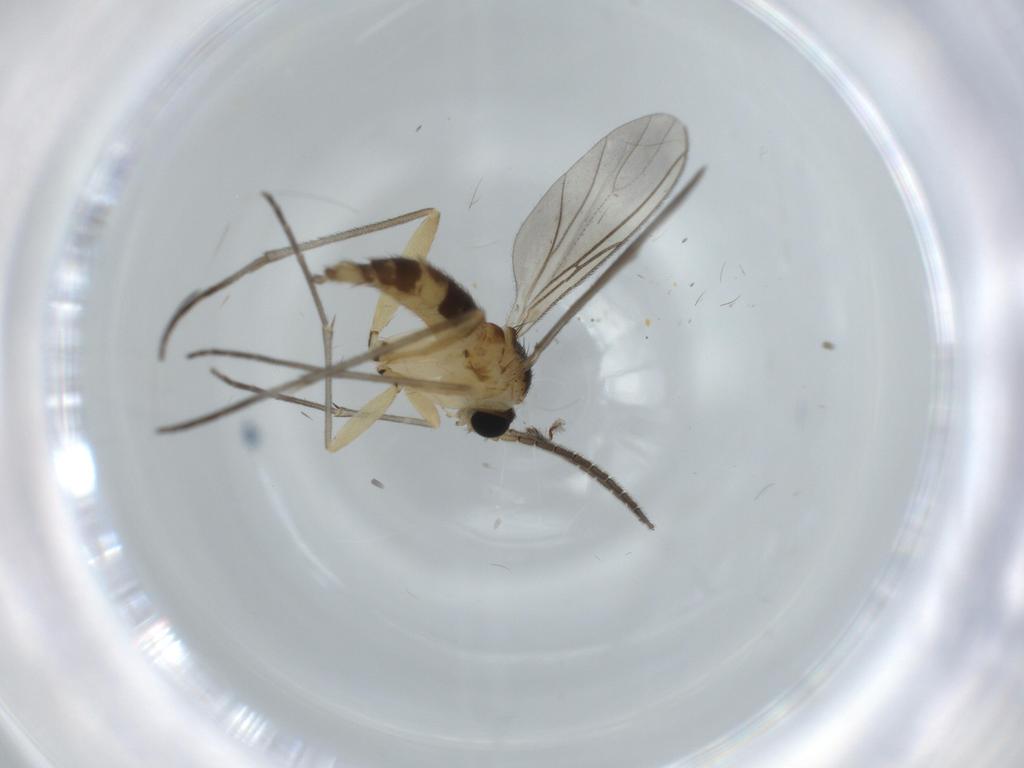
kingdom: Animalia
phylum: Arthropoda
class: Insecta
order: Diptera
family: Sciaridae
